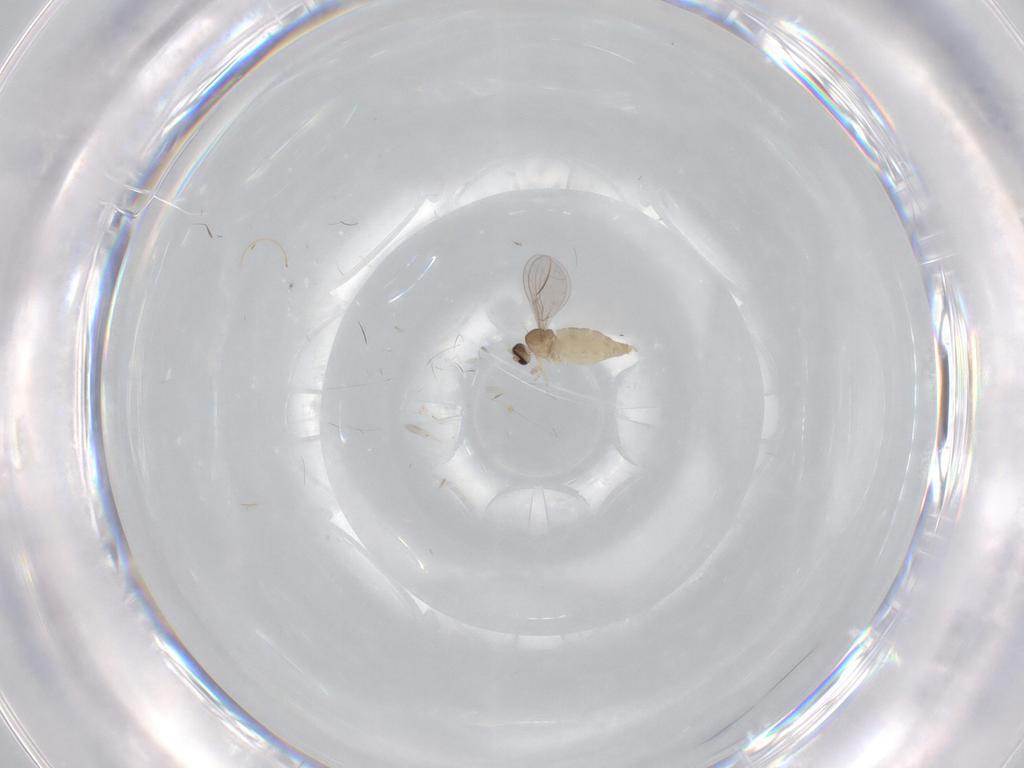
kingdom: Animalia
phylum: Arthropoda
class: Insecta
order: Diptera
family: Cecidomyiidae
